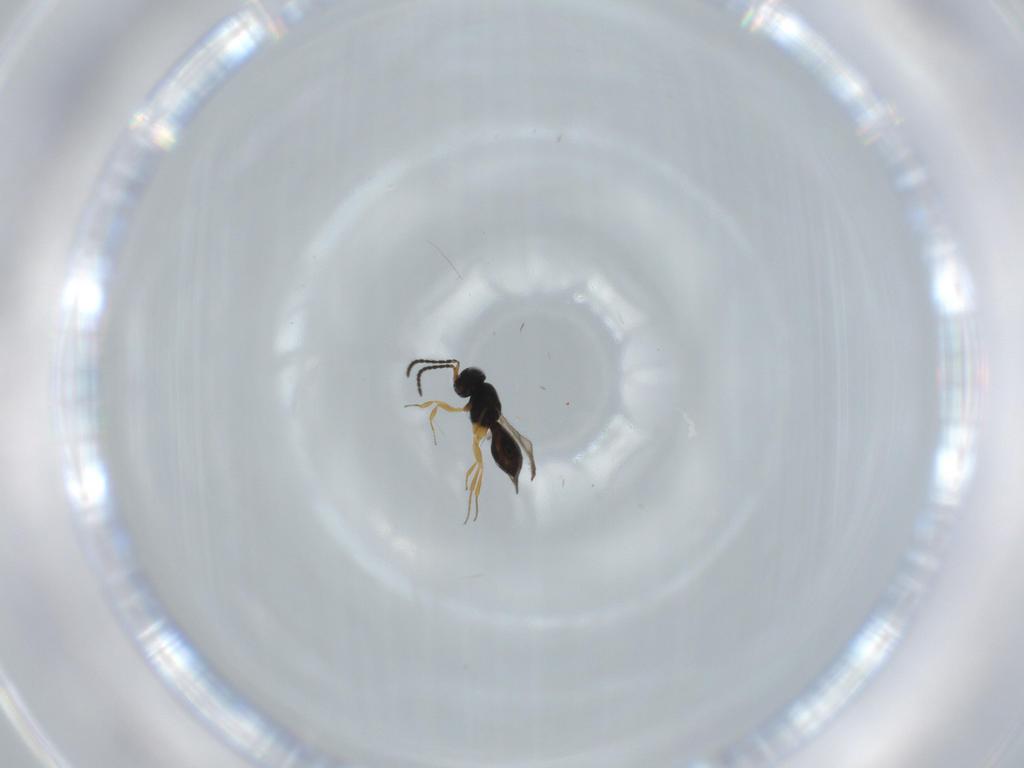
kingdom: Animalia
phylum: Arthropoda
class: Insecta
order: Hymenoptera
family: Scelionidae
